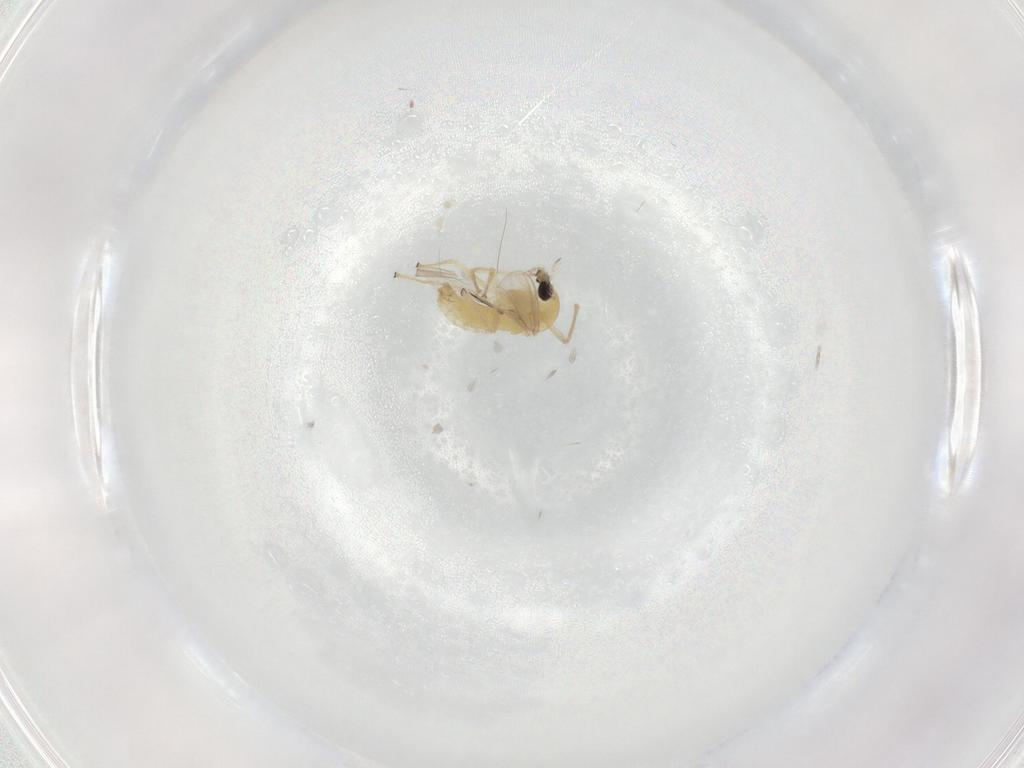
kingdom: Animalia
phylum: Arthropoda
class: Insecta
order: Diptera
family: Chironomidae
